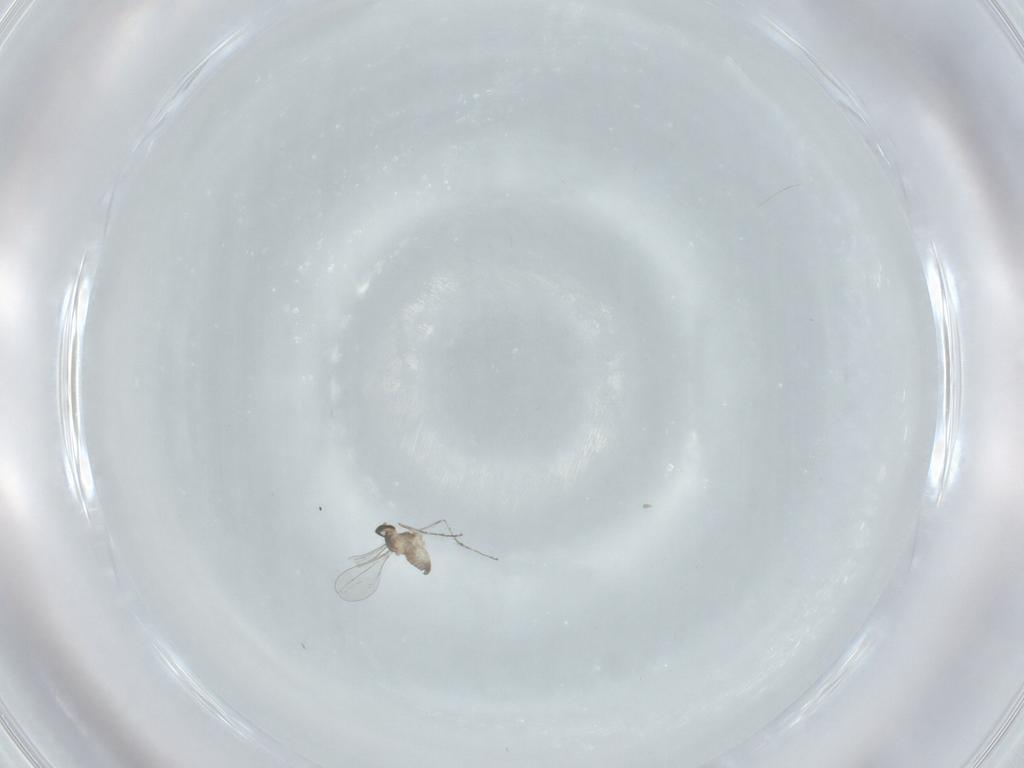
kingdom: Animalia
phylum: Arthropoda
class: Insecta
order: Diptera
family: Cecidomyiidae
